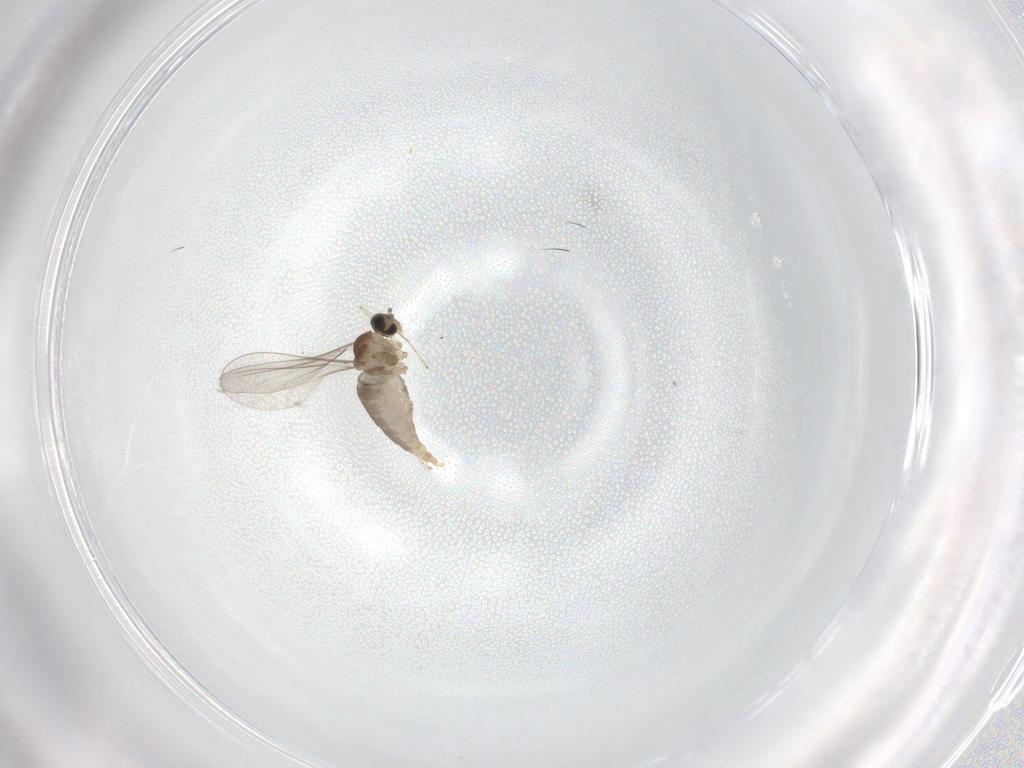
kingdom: Animalia
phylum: Arthropoda
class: Insecta
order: Diptera
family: Cecidomyiidae
